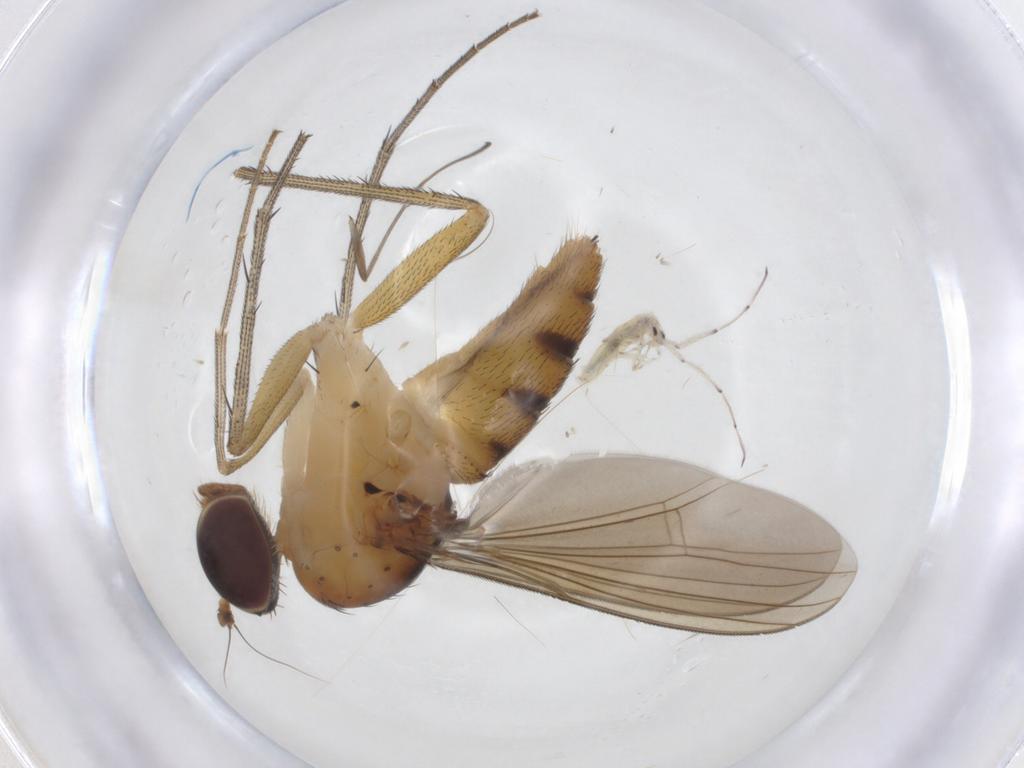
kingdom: Animalia
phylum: Arthropoda
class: Insecta
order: Diptera
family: Dolichopodidae
